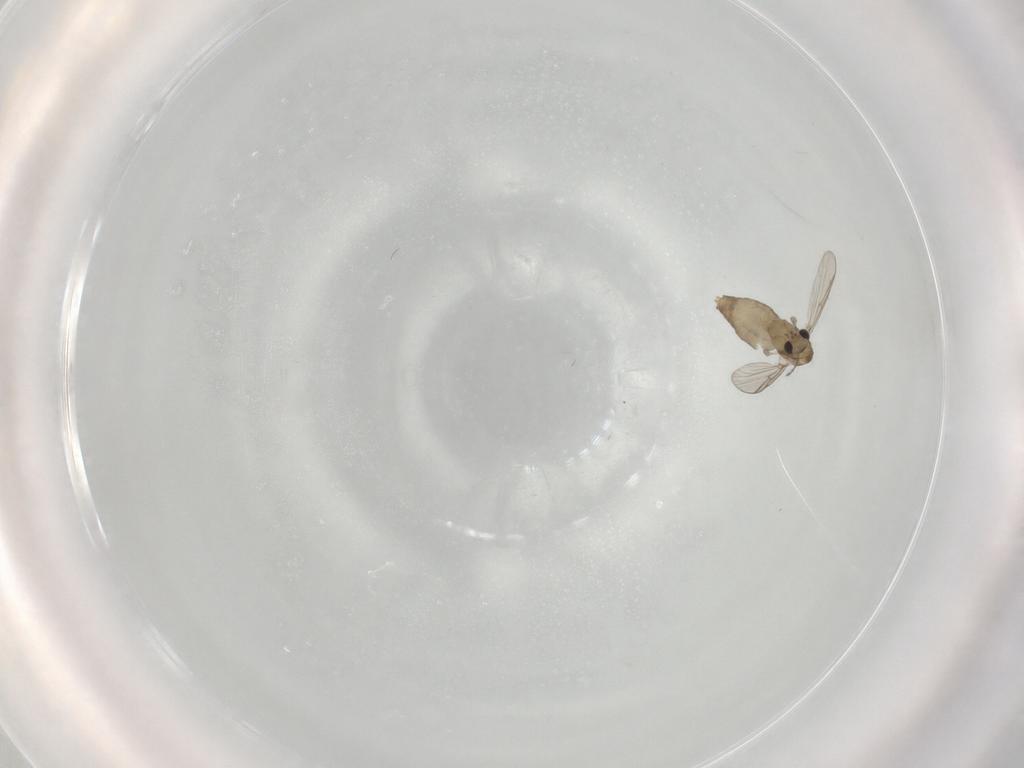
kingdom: Animalia
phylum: Arthropoda
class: Insecta
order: Diptera
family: Chironomidae
